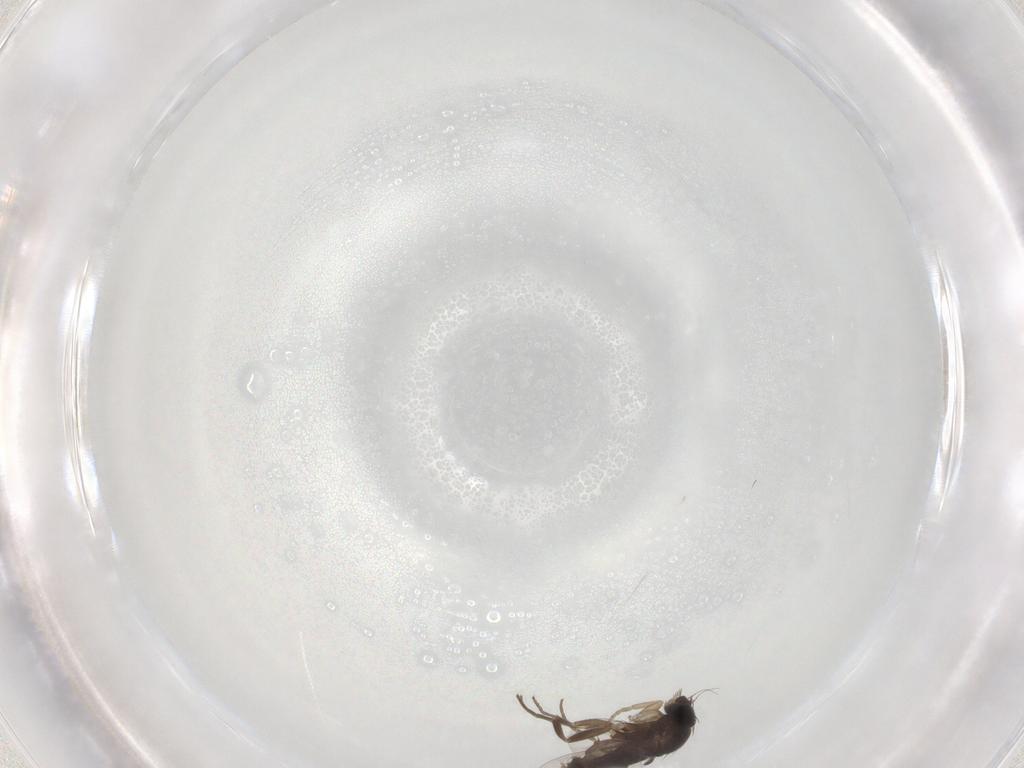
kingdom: Animalia
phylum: Arthropoda
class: Insecta
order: Diptera
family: Phoridae
